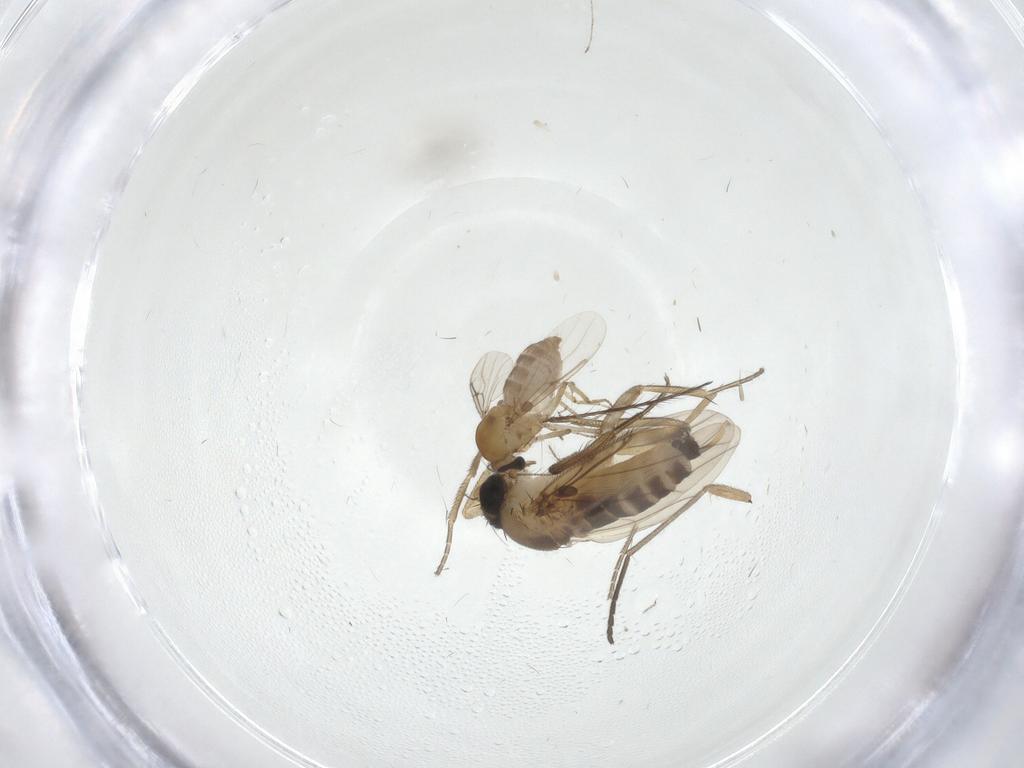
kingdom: Animalia
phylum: Arthropoda
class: Insecta
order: Diptera
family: Phoridae
